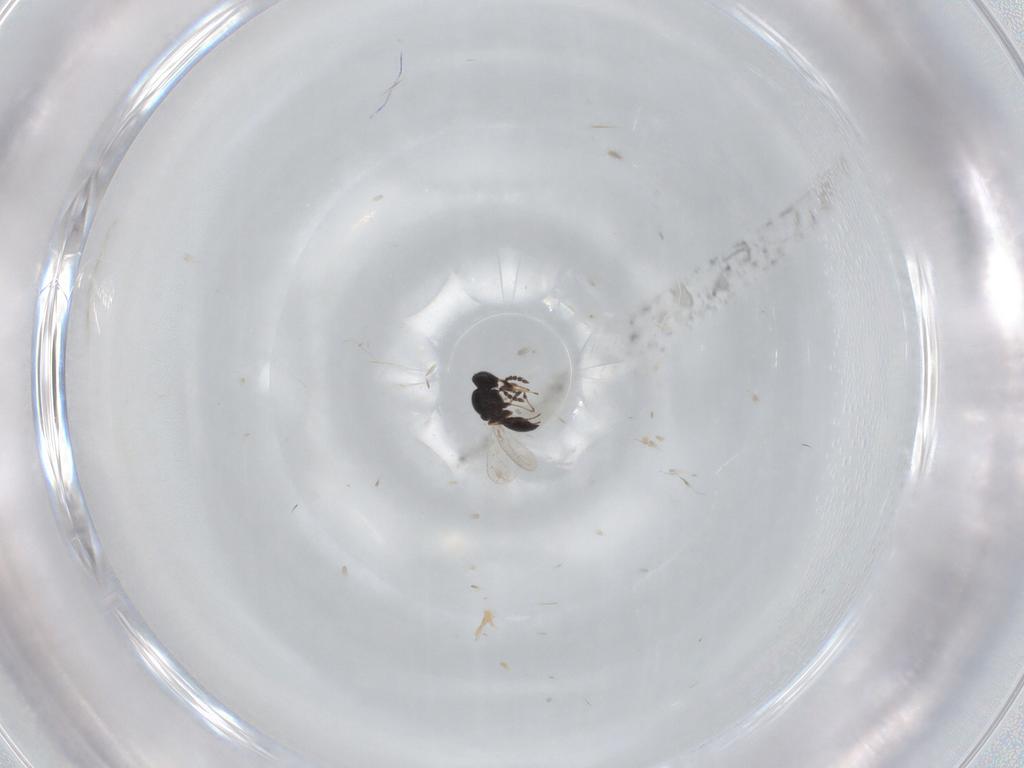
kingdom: Animalia
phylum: Arthropoda
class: Insecta
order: Hymenoptera
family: Platygastridae
